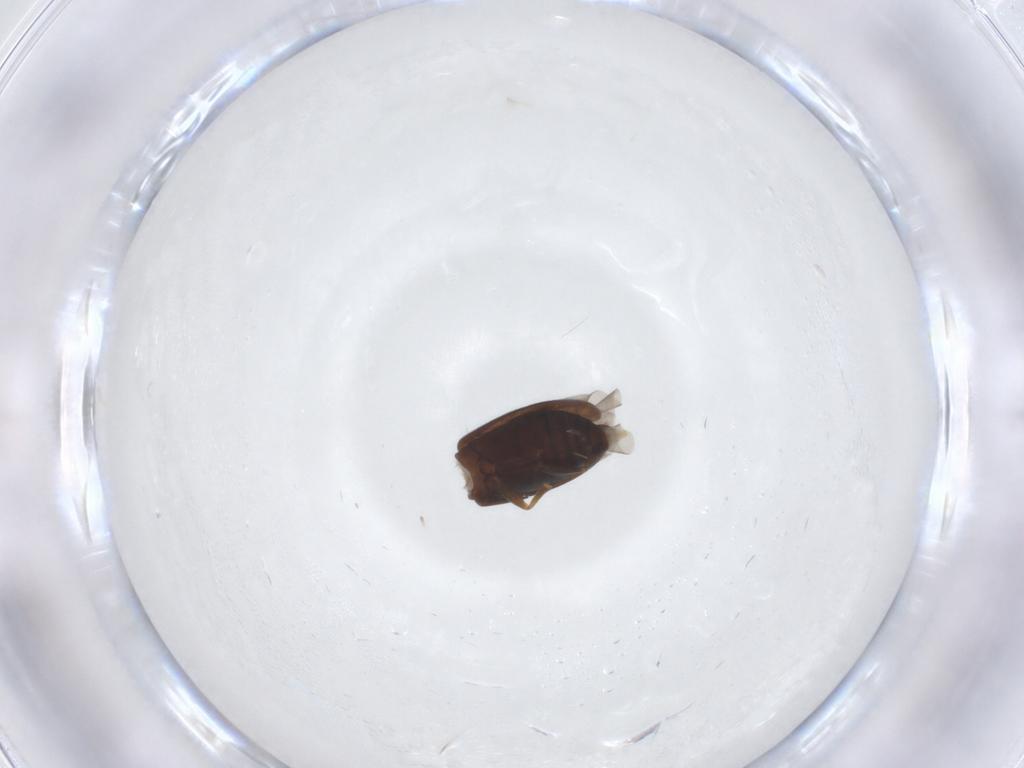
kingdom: Animalia
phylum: Arthropoda
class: Insecta
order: Coleoptera
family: Scraptiidae
